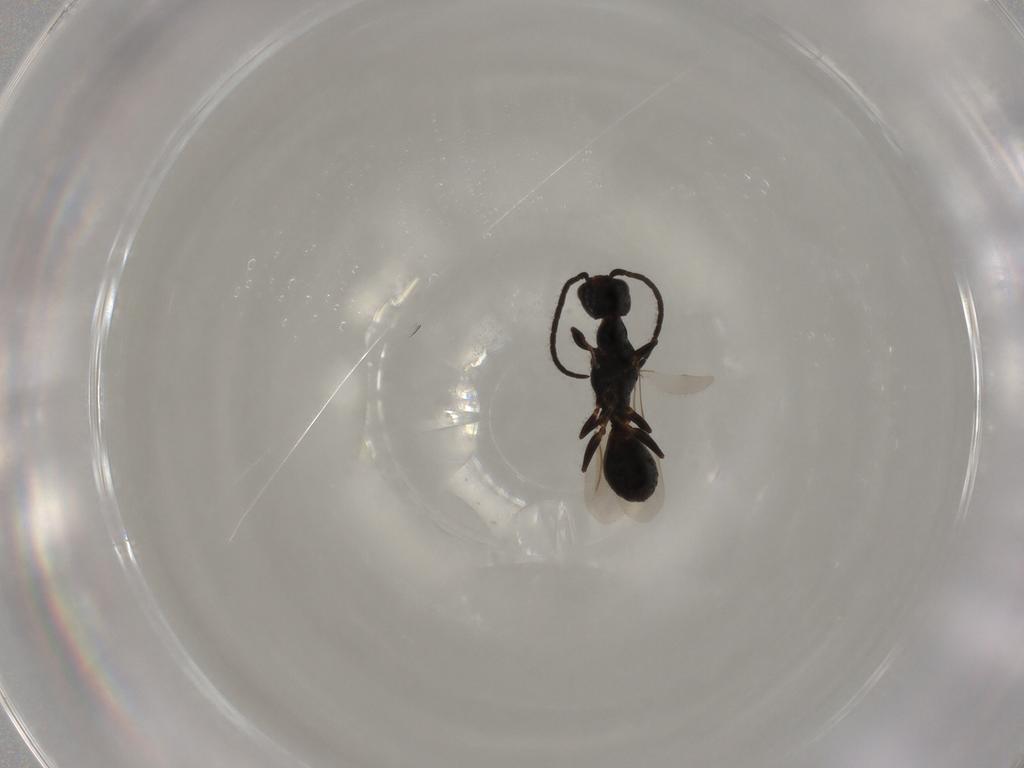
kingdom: Animalia
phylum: Arthropoda
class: Insecta
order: Hymenoptera
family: Bethylidae
